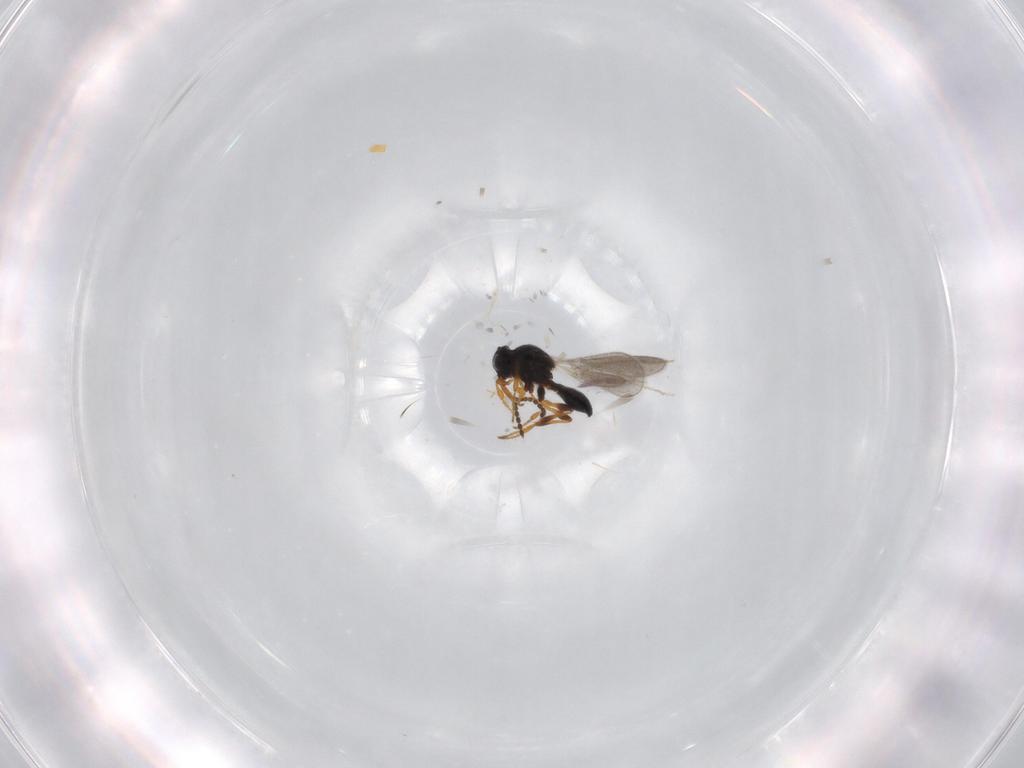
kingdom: Animalia
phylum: Arthropoda
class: Insecta
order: Hymenoptera
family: Platygastridae
